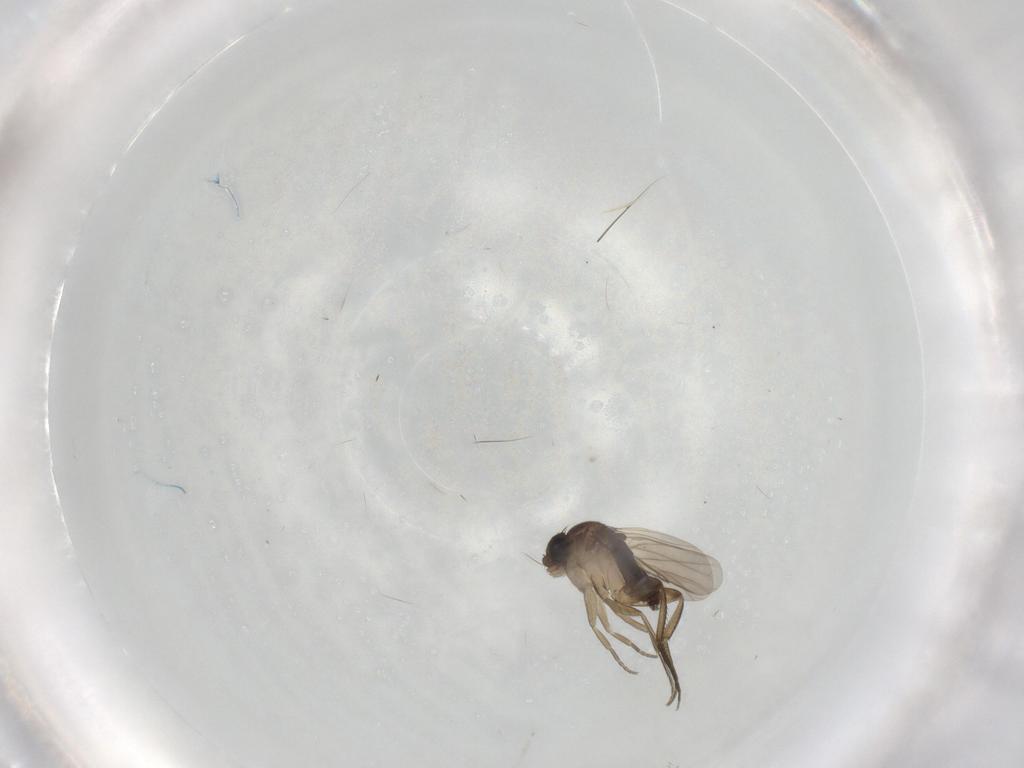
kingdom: Animalia
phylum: Arthropoda
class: Insecta
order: Diptera
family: Phoridae
